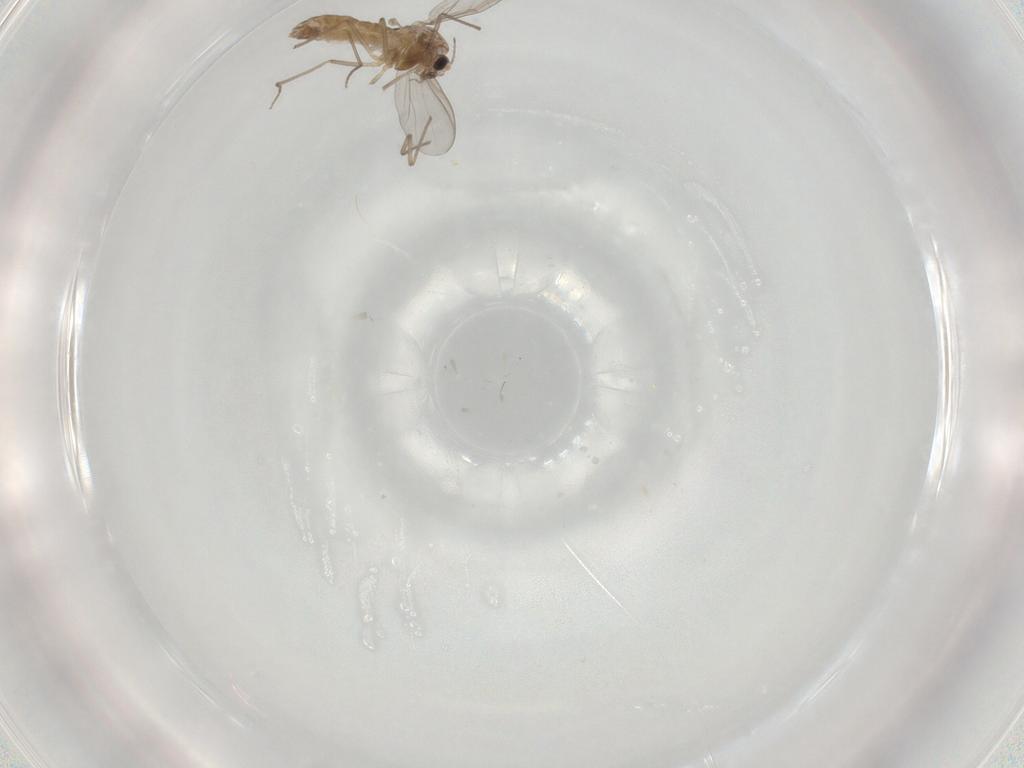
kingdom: Animalia
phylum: Arthropoda
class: Insecta
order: Diptera
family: Chironomidae
